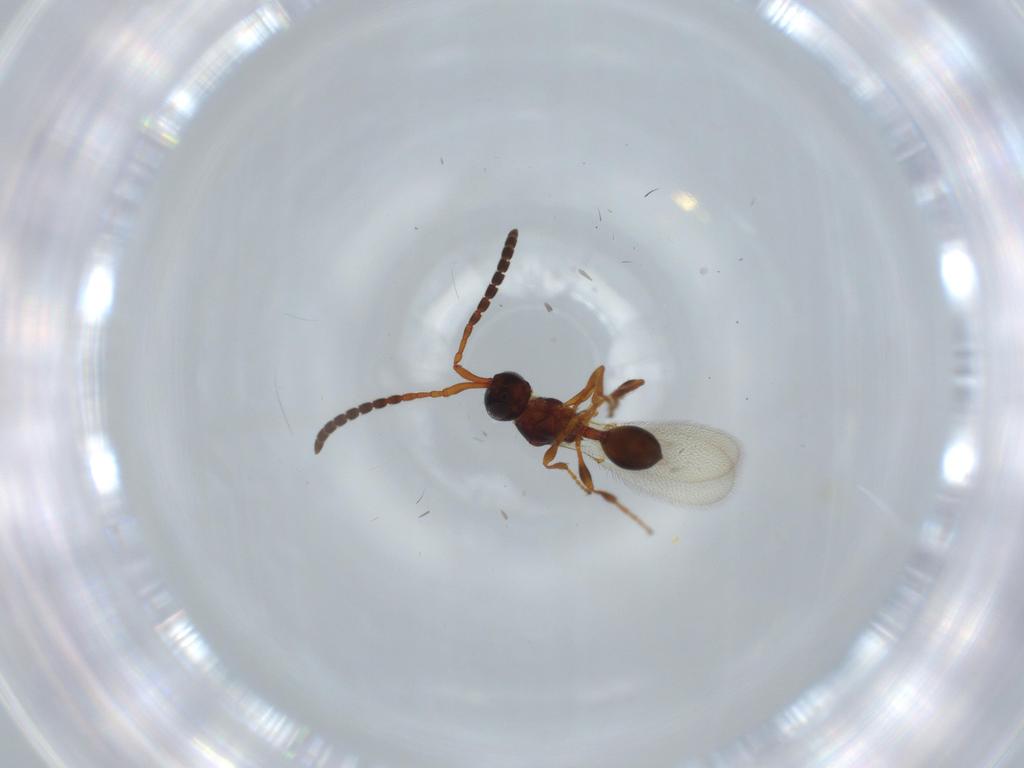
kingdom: Animalia
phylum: Arthropoda
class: Insecta
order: Hymenoptera
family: Diapriidae
